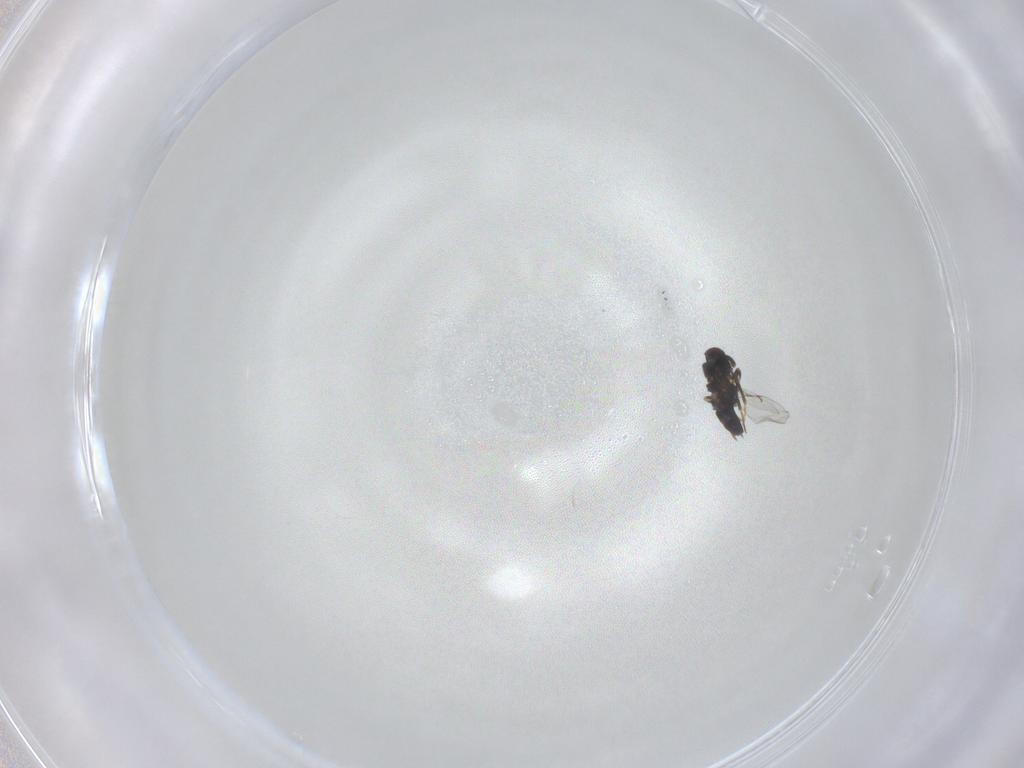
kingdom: Animalia
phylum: Arthropoda
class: Insecta
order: Hymenoptera
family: Aphelinidae
